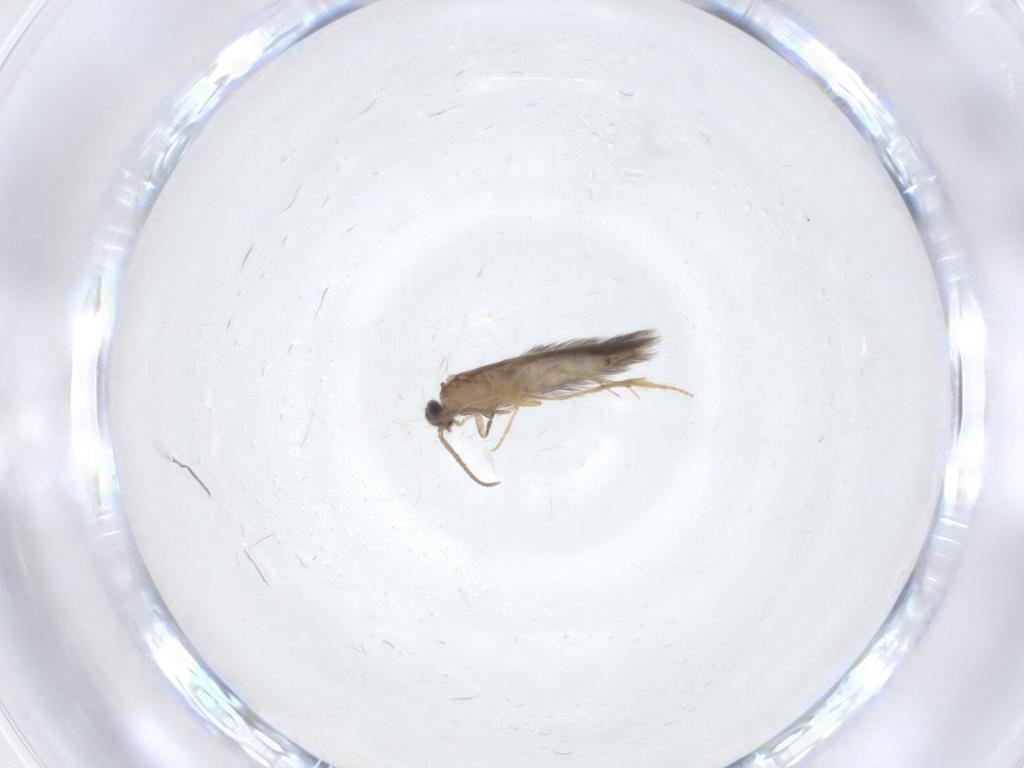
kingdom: Animalia
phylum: Arthropoda
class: Insecta
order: Trichoptera
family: Hydroptilidae
